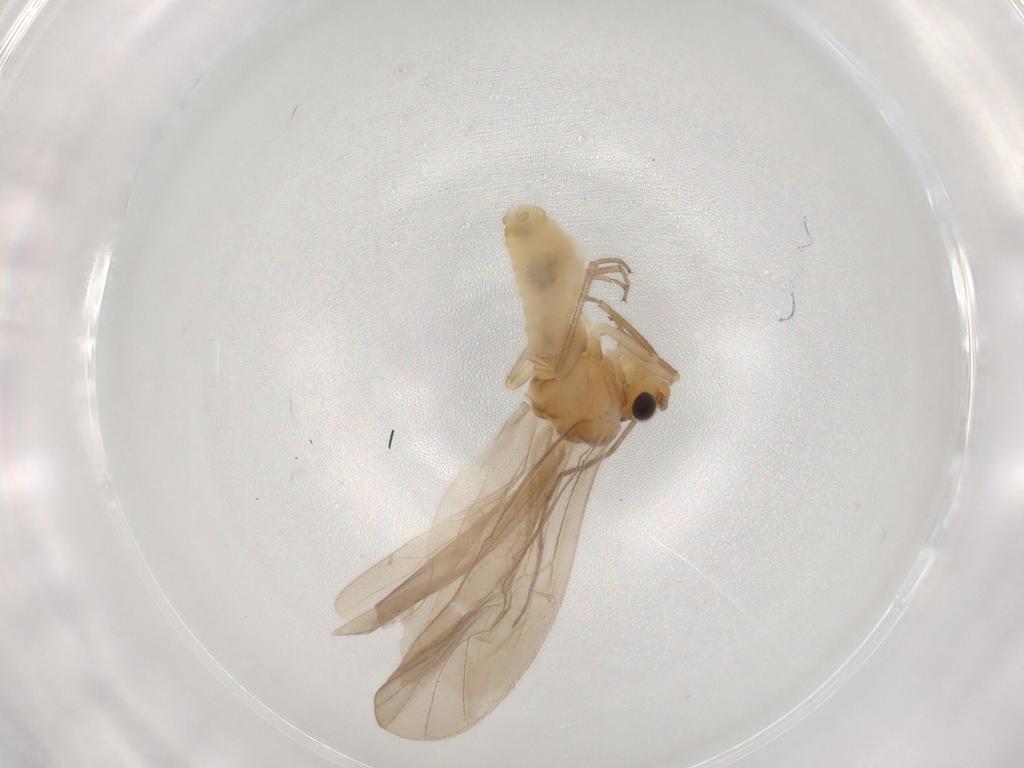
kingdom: Animalia
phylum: Arthropoda
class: Insecta
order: Psocodea
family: Caeciliusidae
